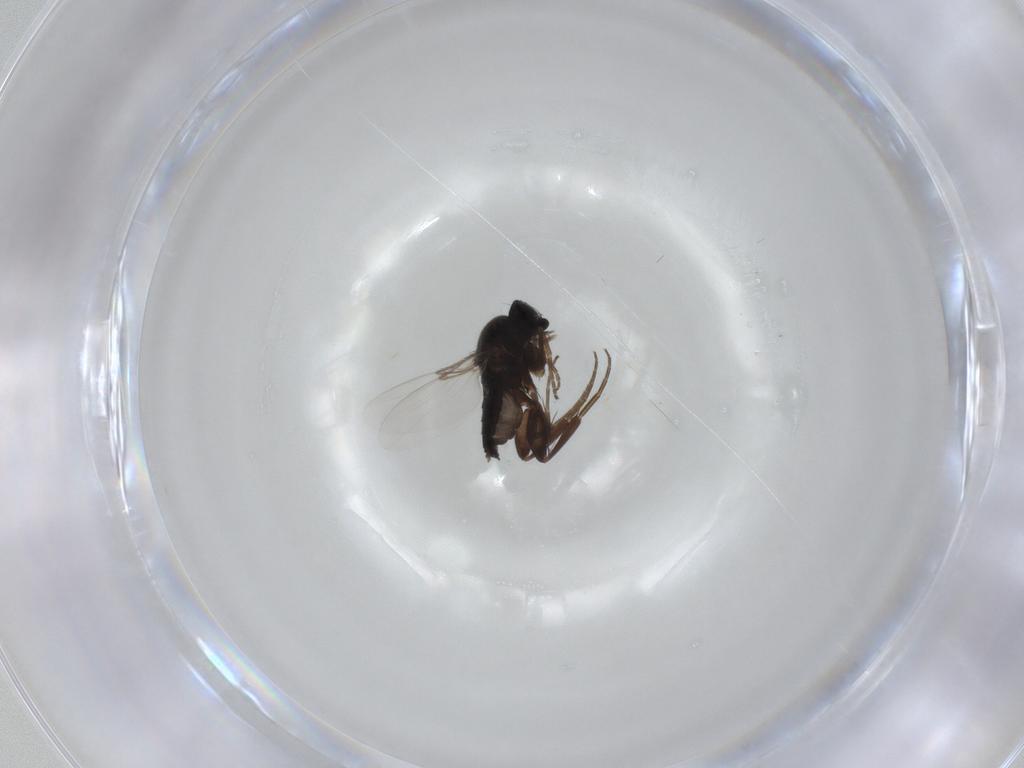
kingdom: Animalia
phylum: Arthropoda
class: Insecta
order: Diptera
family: Phoridae
